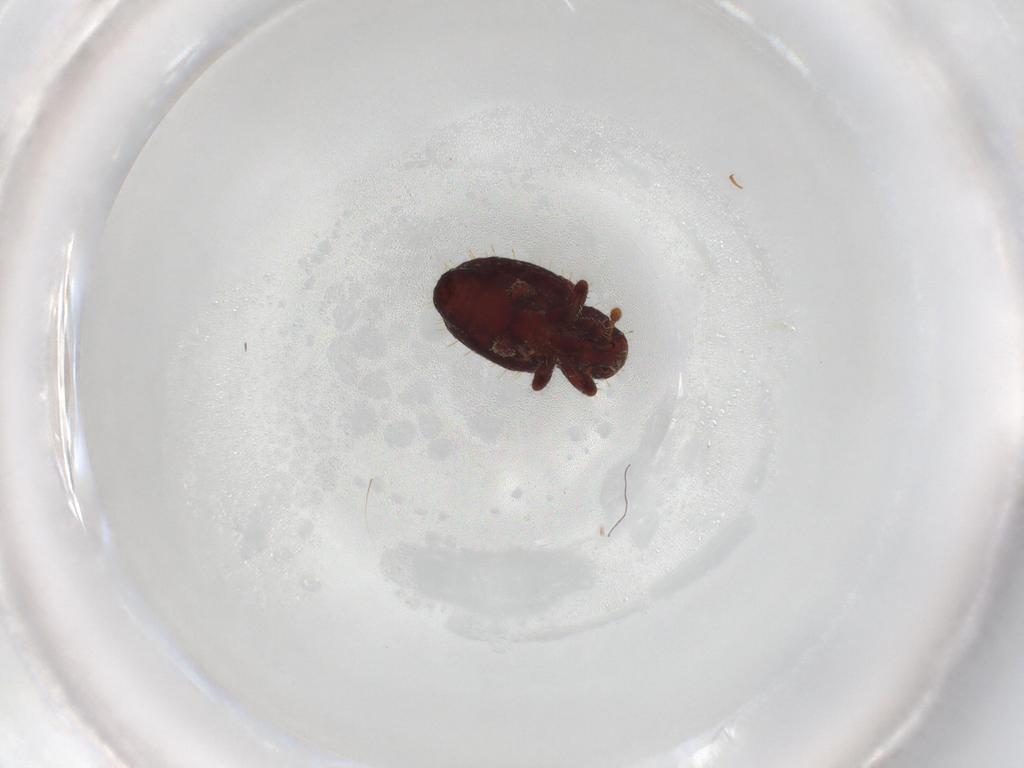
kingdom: Animalia
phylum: Arthropoda
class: Insecta
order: Coleoptera
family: Curculionidae
